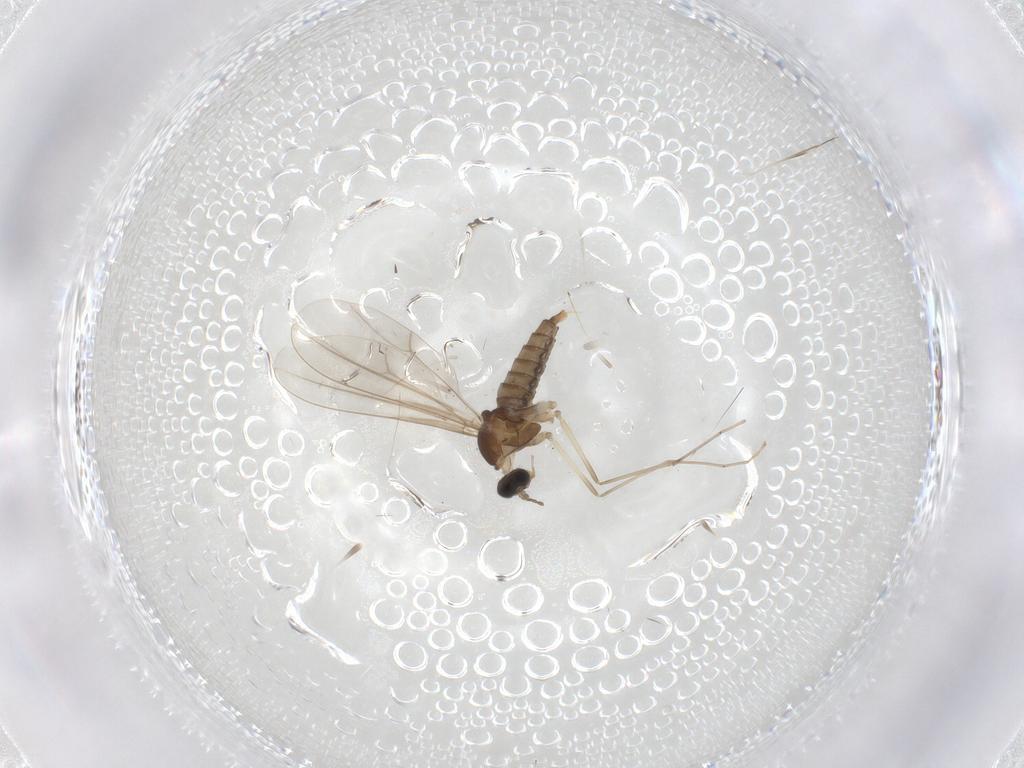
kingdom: Animalia
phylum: Arthropoda
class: Insecta
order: Diptera
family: Cecidomyiidae
